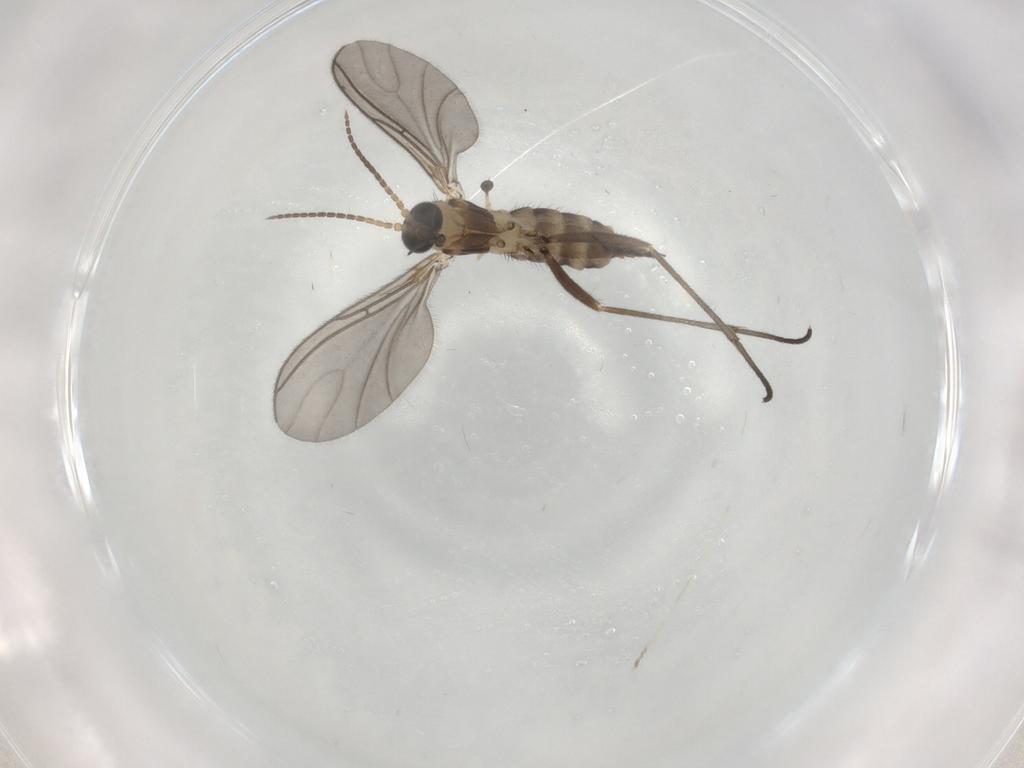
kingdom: Animalia
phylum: Arthropoda
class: Insecta
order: Diptera
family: Sciaridae
